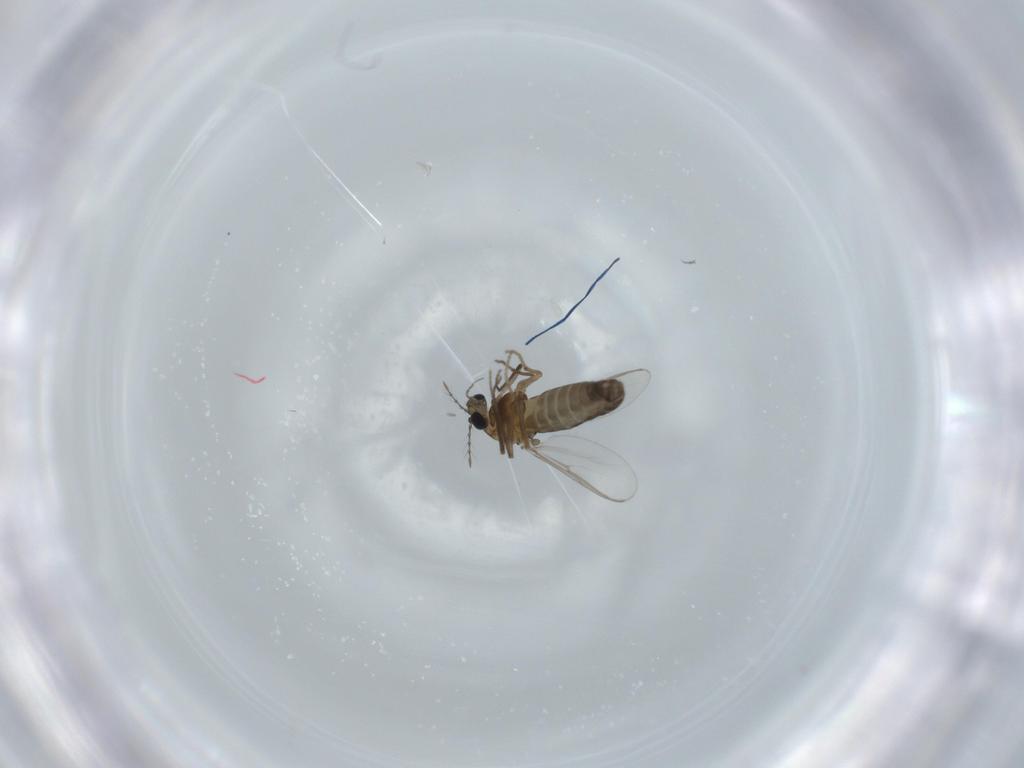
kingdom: Animalia
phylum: Arthropoda
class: Insecta
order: Diptera
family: Chironomidae
